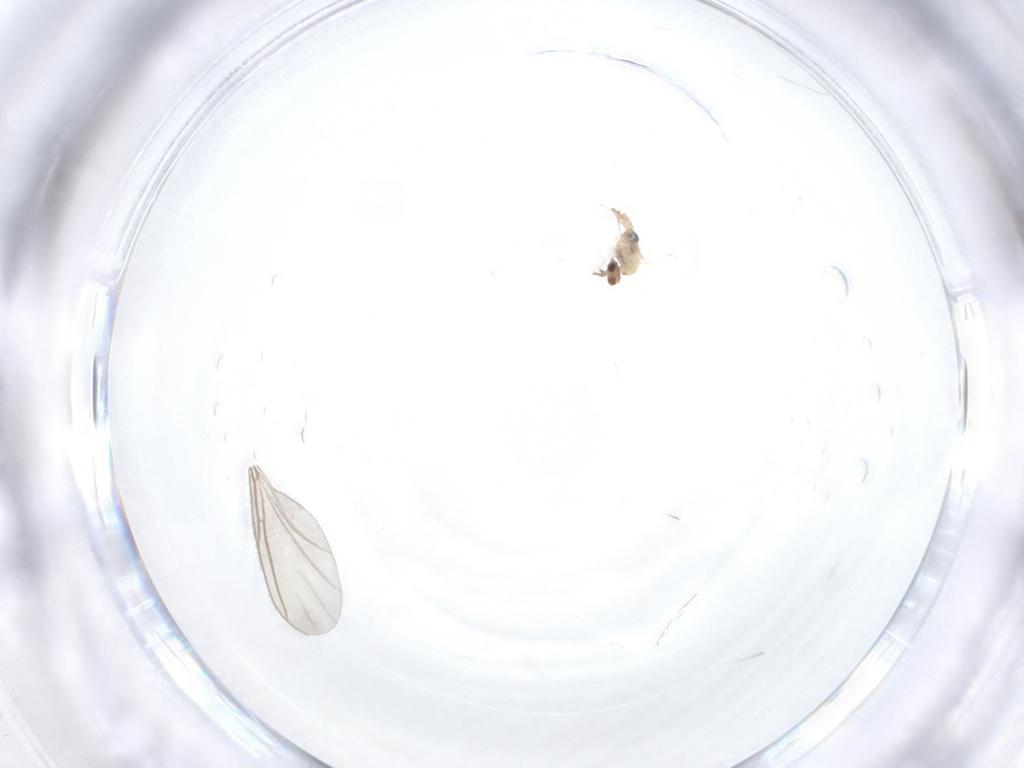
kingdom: Animalia
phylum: Arthropoda
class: Insecta
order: Diptera
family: Cecidomyiidae
